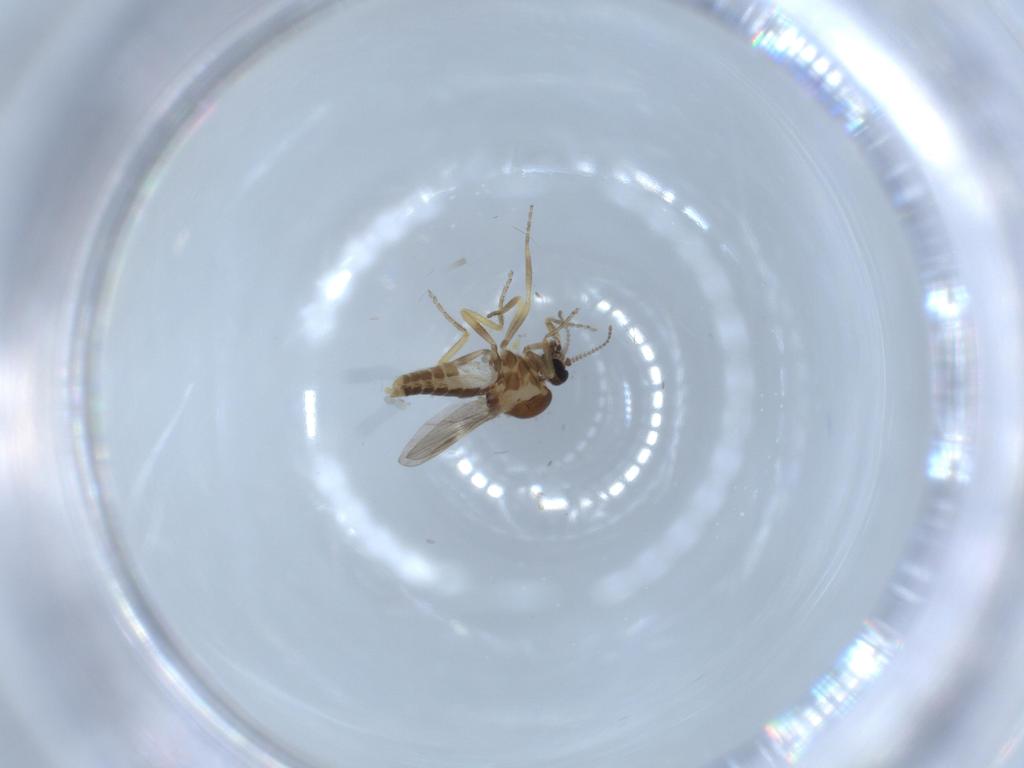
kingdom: Animalia
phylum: Arthropoda
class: Insecta
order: Diptera
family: Ceratopogonidae
